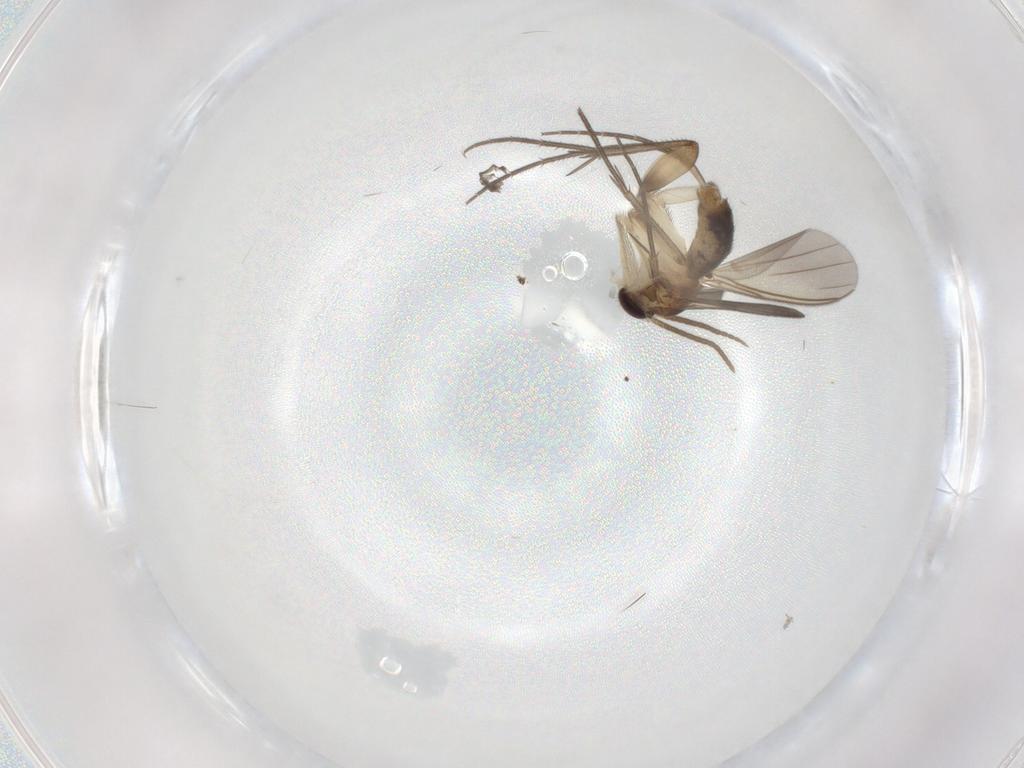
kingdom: Animalia
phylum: Arthropoda
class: Insecta
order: Diptera
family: Mycetophilidae
